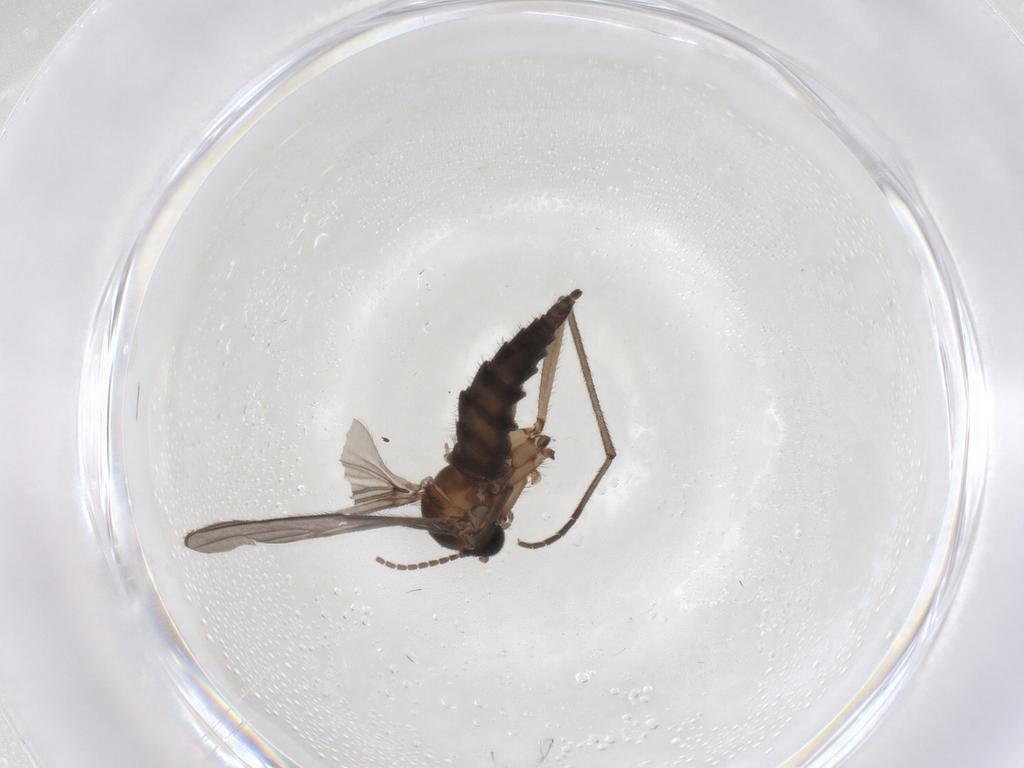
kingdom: Animalia
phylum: Arthropoda
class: Insecta
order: Diptera
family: Sciaridae
